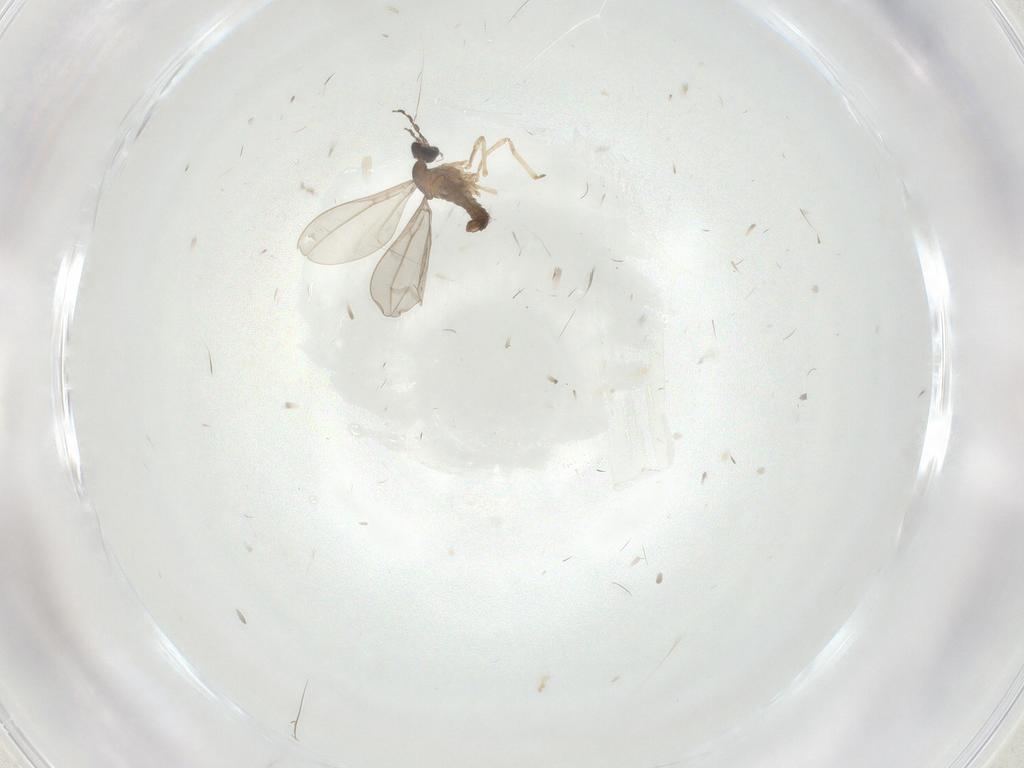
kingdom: Animalia
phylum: Arthropoda
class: Insecta
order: Diptera
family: Cecidomyiidae
